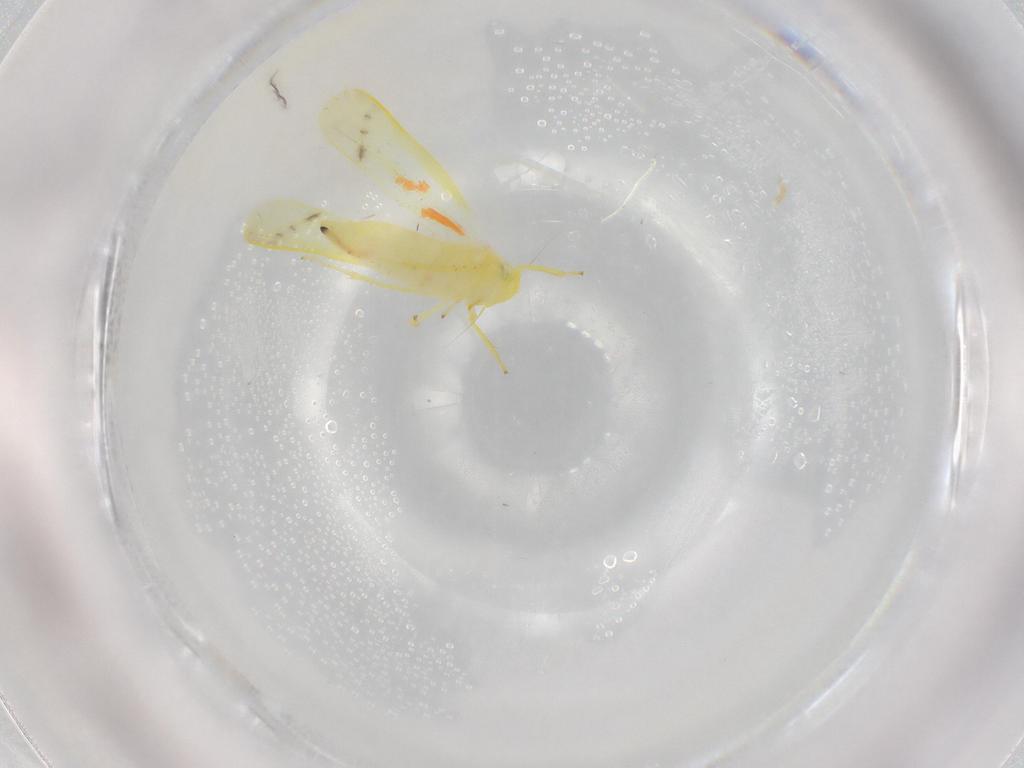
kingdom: Animalia
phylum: Arthropoda
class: Insecta
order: Hemiptera
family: Cicadellidae
